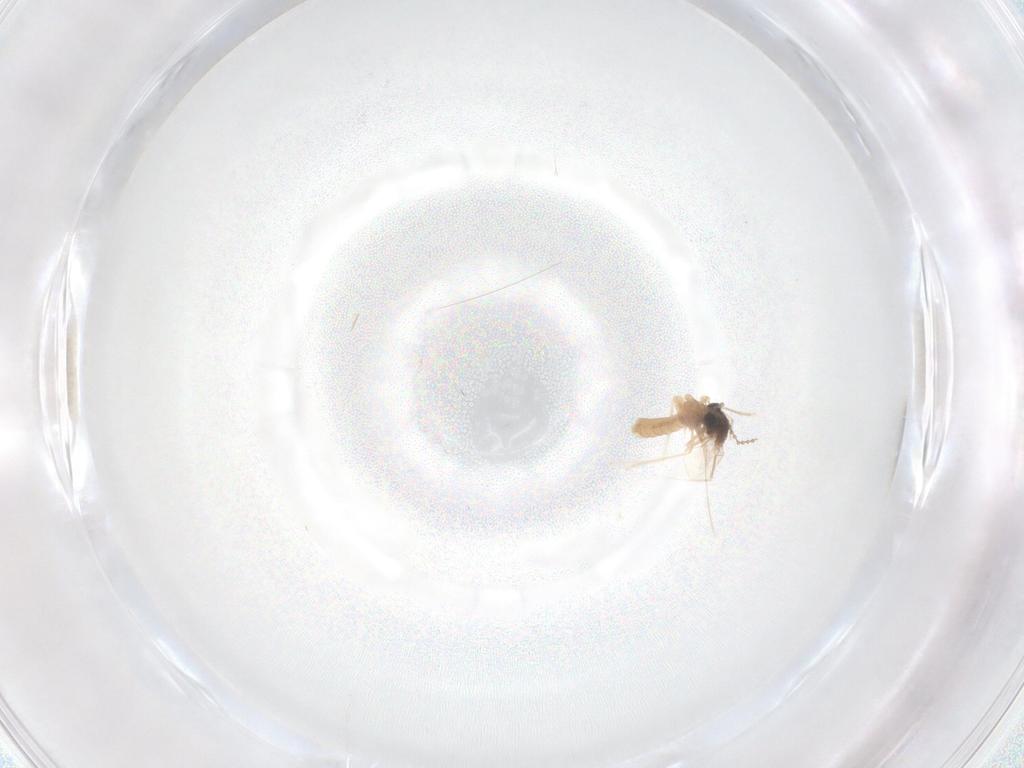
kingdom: Animalia
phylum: Arthropoda
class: Insecta
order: Diptera
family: Cecidomyiidae
